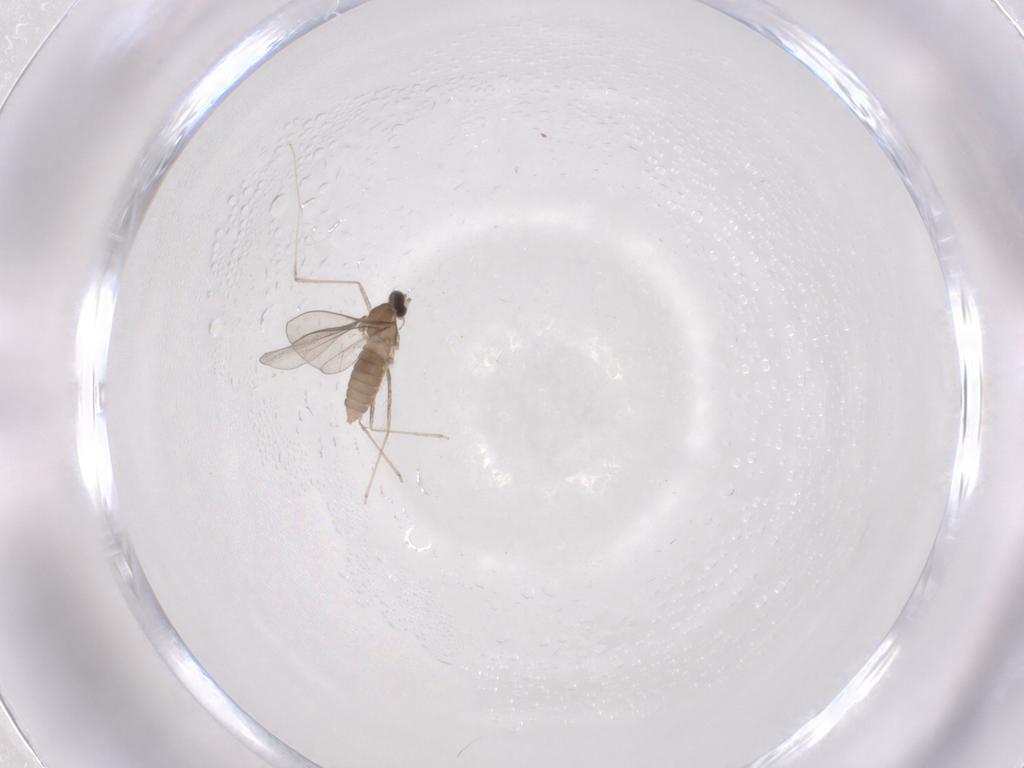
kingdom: Animalia
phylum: Arthropoda
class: Insecta
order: Diptera
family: Cecidomyiidae
